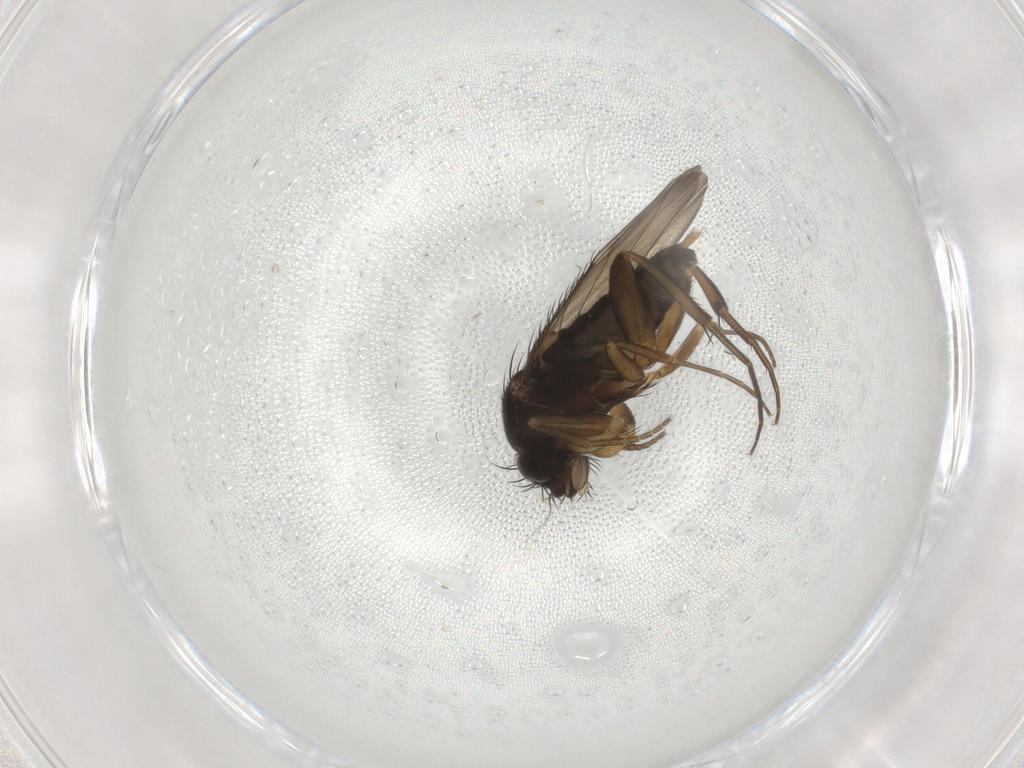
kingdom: Animalia
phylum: Arthropoda
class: Insecta
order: Diptera
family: Phoridae
